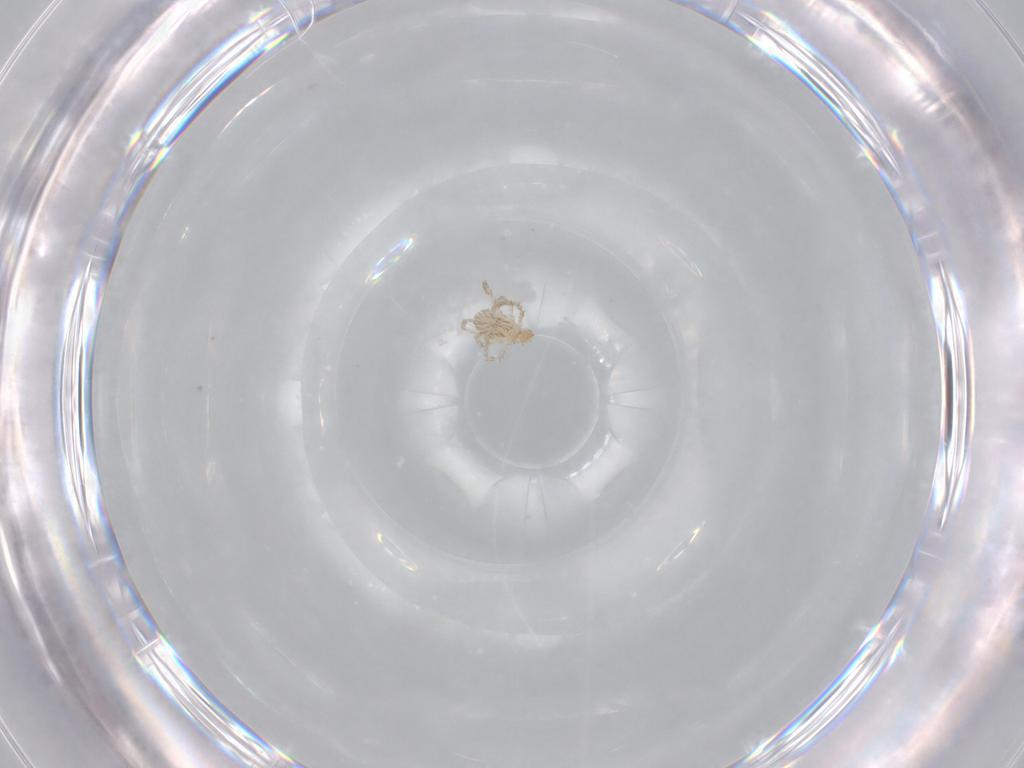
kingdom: Animalia
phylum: Arthropoda
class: Arachnida
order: Trombidiformes
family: Erythraeidae
